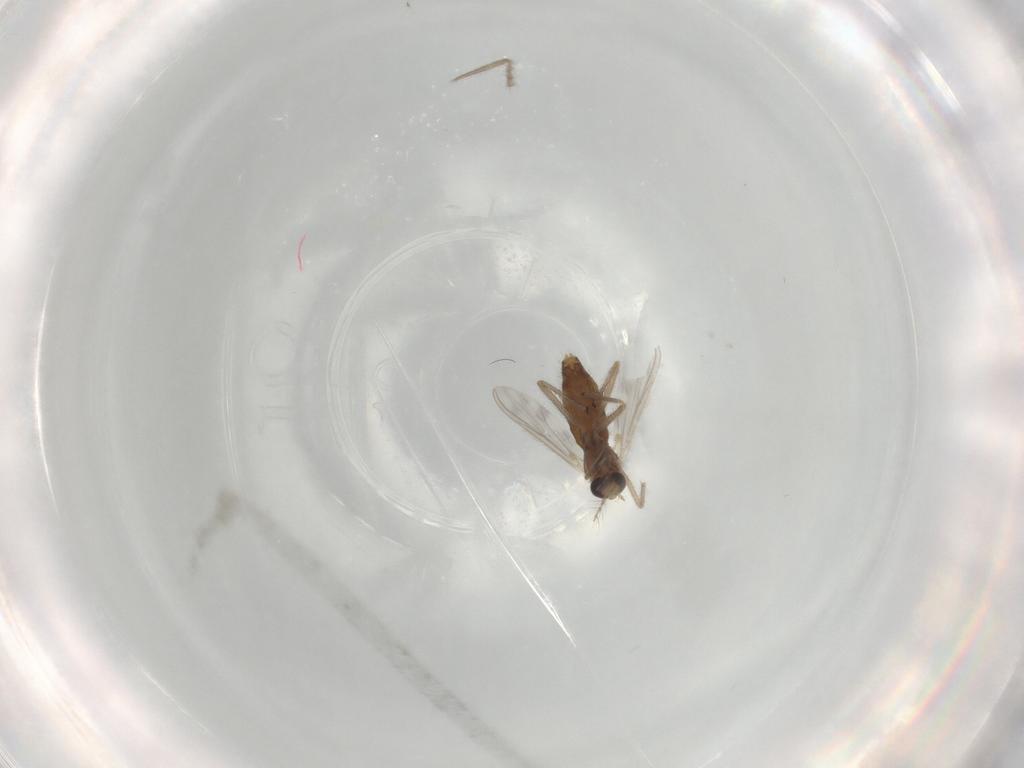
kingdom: Animalia
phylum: Arthropoda
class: Insecta
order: Diptera
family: Chironomidae
